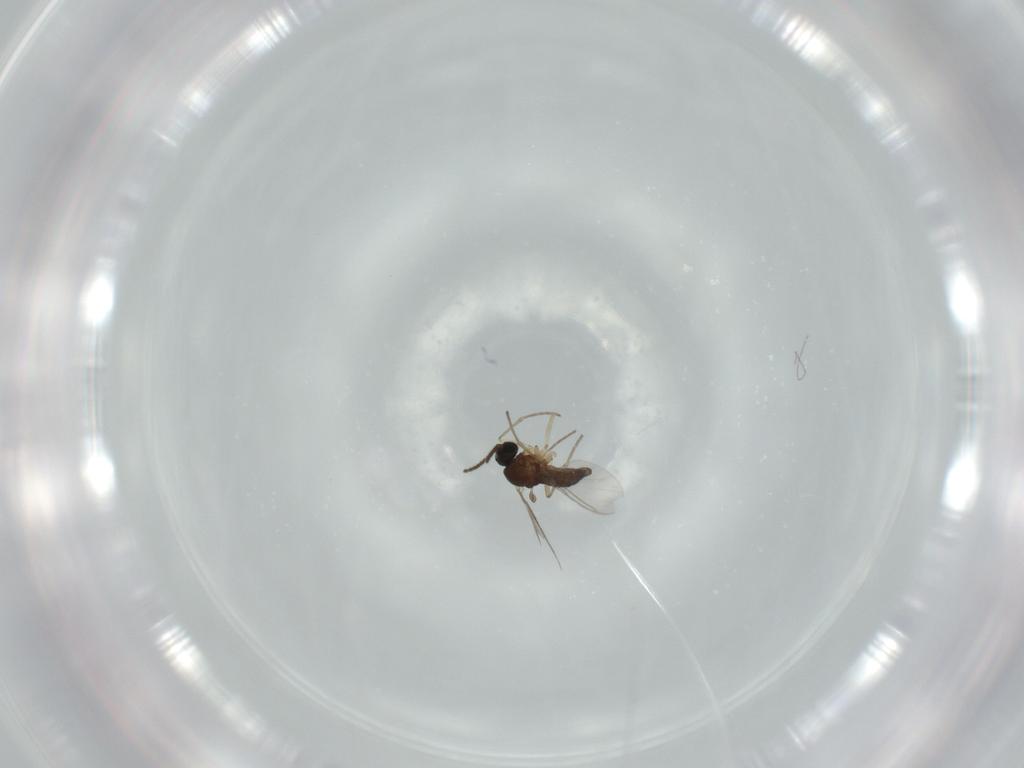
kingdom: Animalia
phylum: Arthropoda
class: Insecta
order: Diptera
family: Sciaridae
